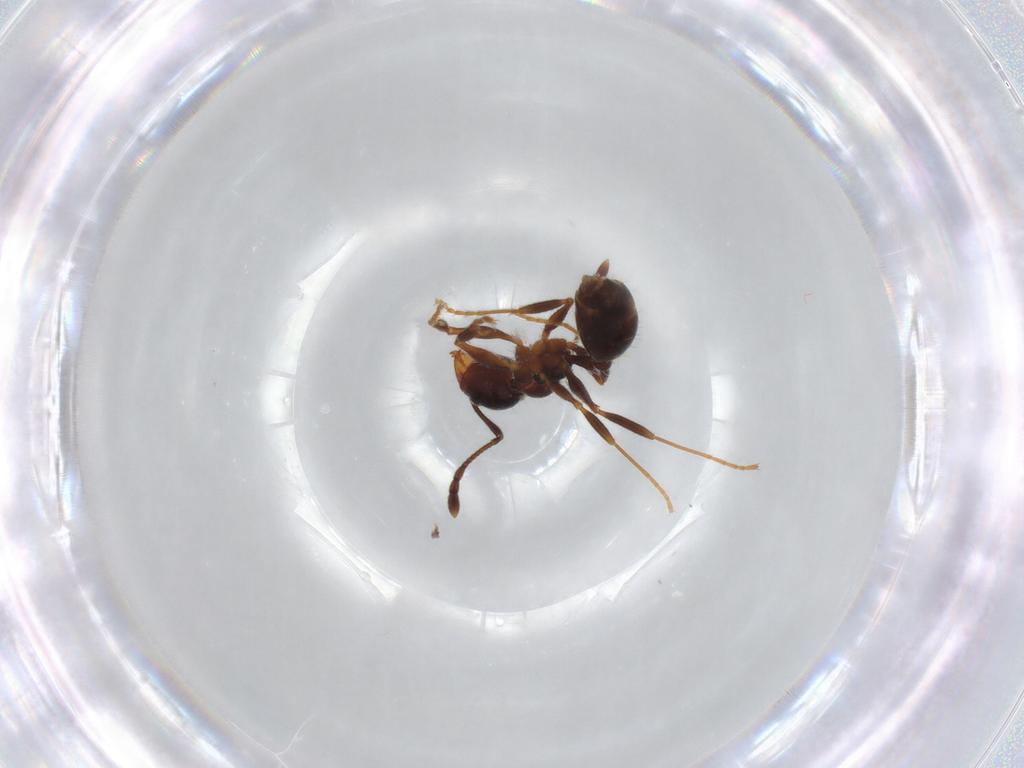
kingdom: Animalia
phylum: Arthropoda
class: Insecta
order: Hymenoptera
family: Formicidae
